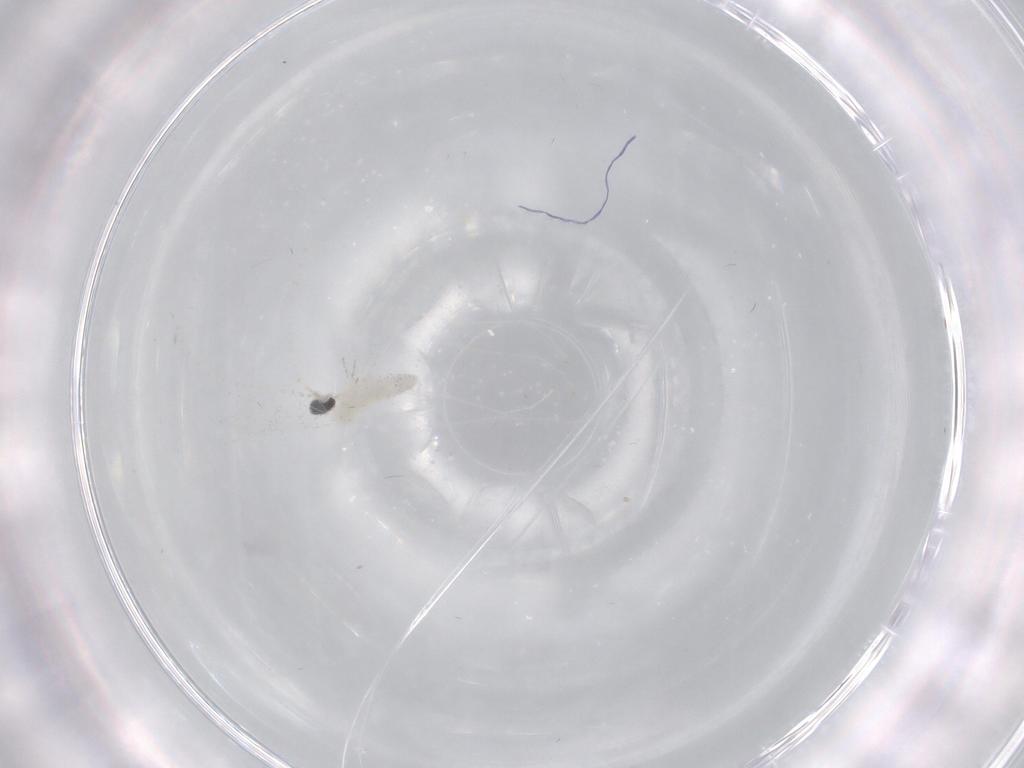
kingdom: Animalia
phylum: Arthropoda
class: Insecta
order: Diptera
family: Cecidomyiidae
